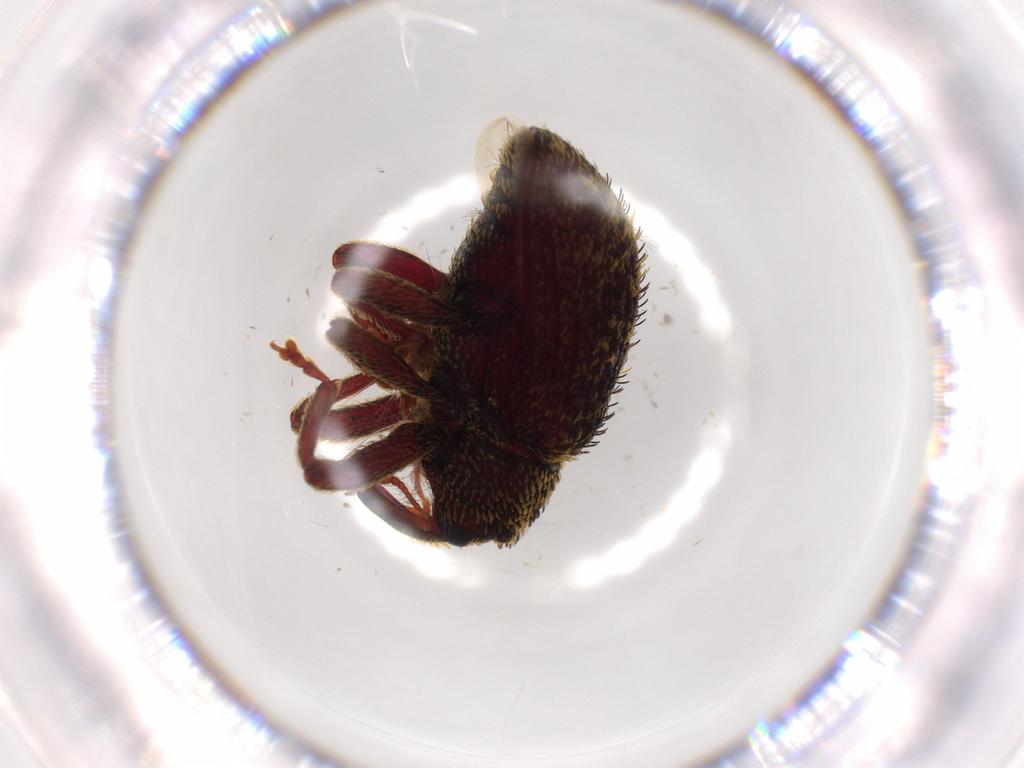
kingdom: Animalia
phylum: Arthropoda
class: Insecta
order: Coleoptera
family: Curculionidae
